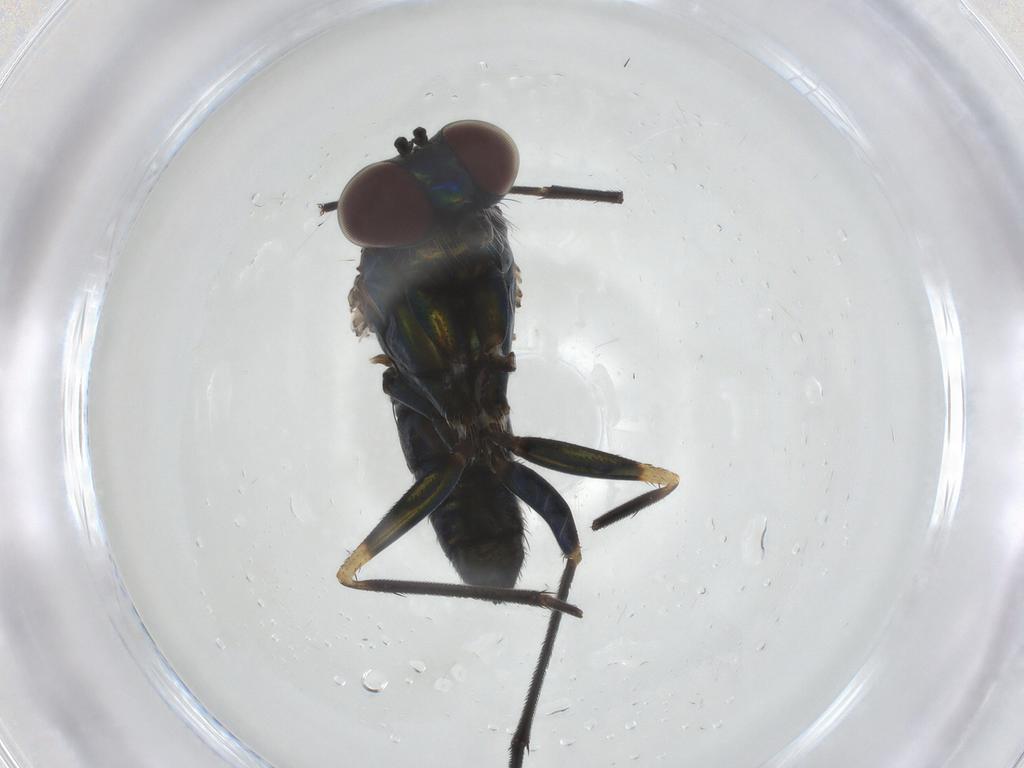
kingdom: Animalia
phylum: Arthropoda
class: Insecta
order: Diptera
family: Dolichopodidae
